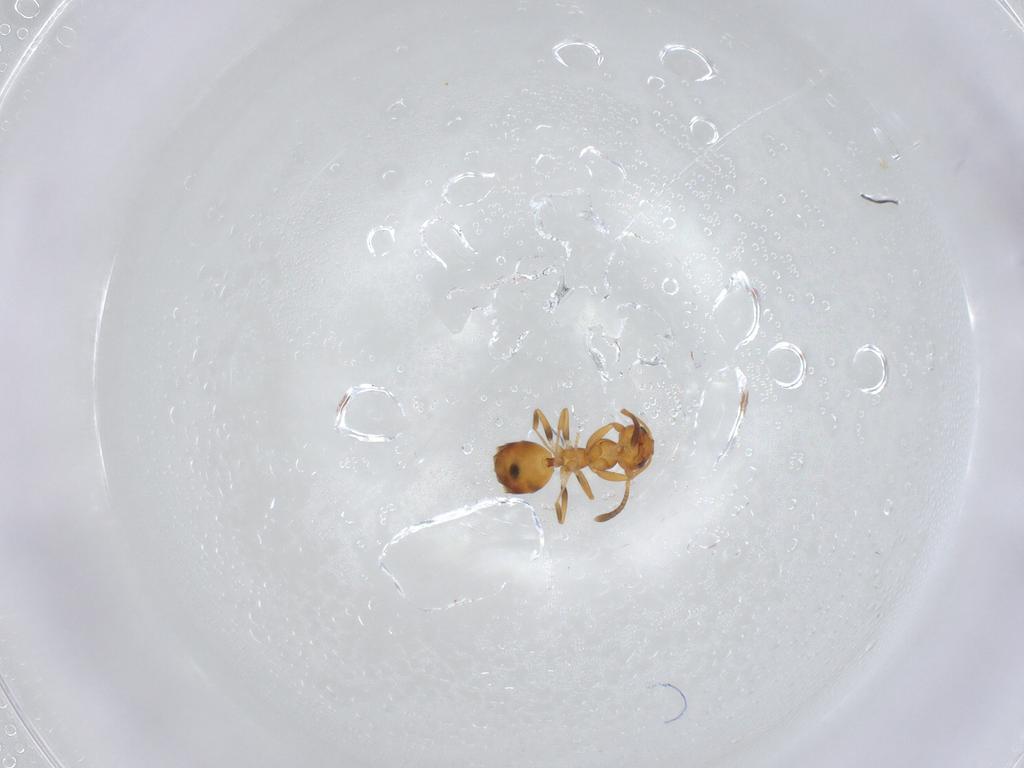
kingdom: Animalia
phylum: Arthropoda
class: Insecta
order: Hymenoptera
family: Formicidae
